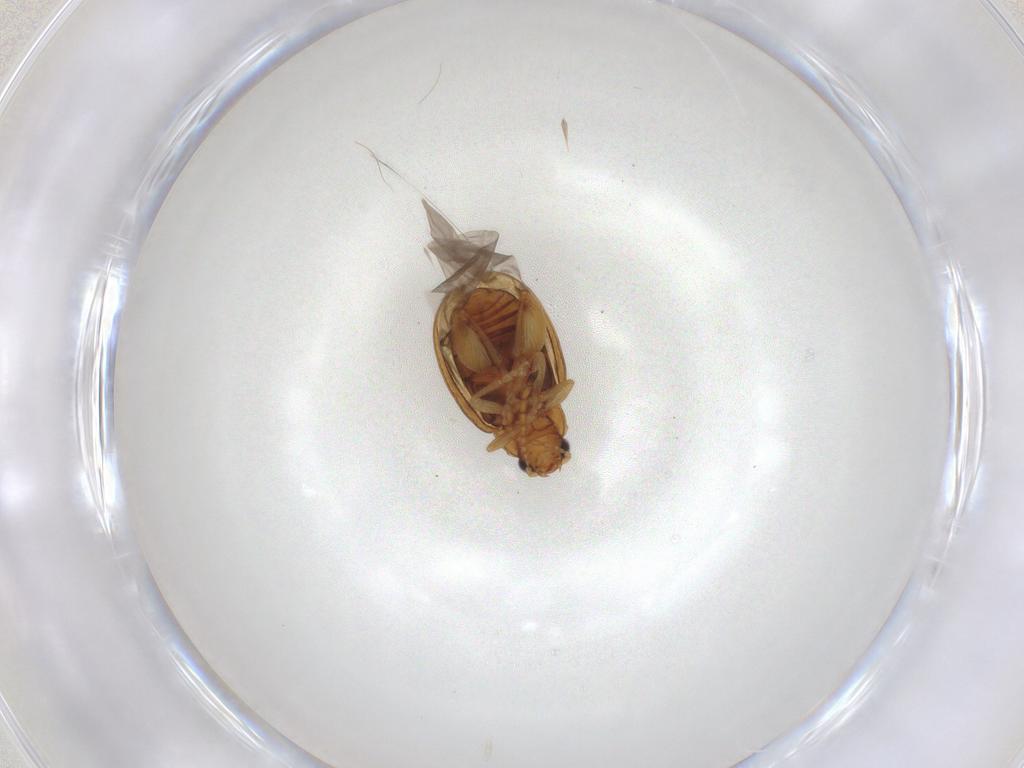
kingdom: Animalia
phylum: Arthropoda
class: Insecta
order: Coleoptera
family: Chrysomelidae
